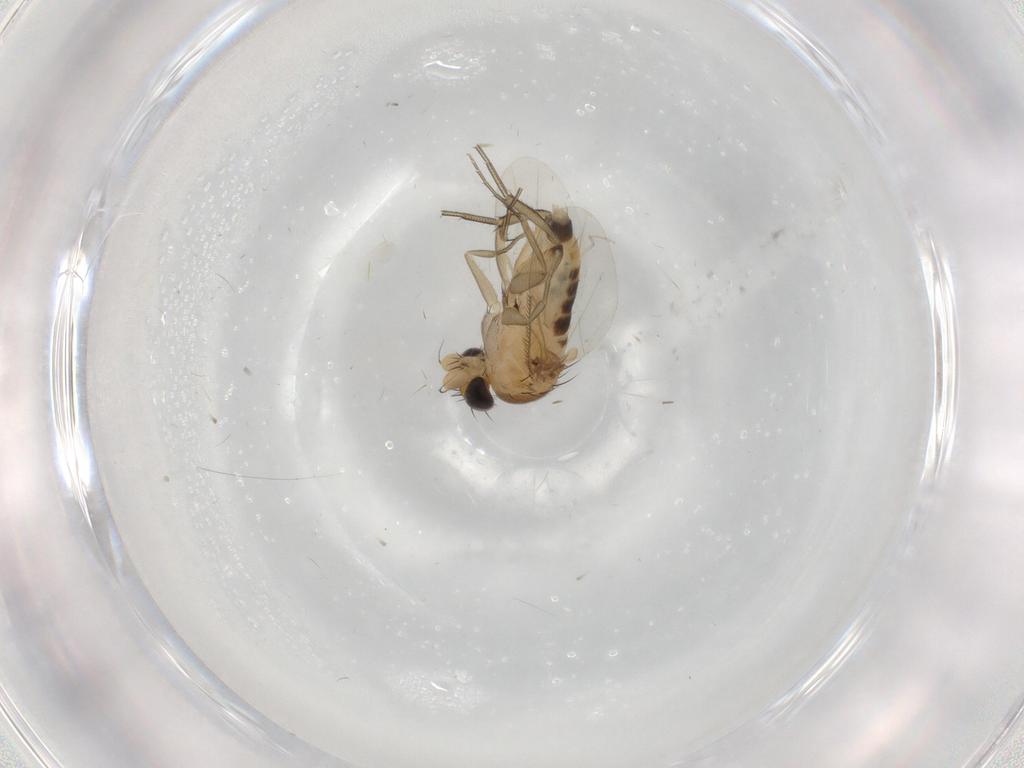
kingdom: Animalia
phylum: Arthropoda
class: Insecta
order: Diptera
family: Phoridae
